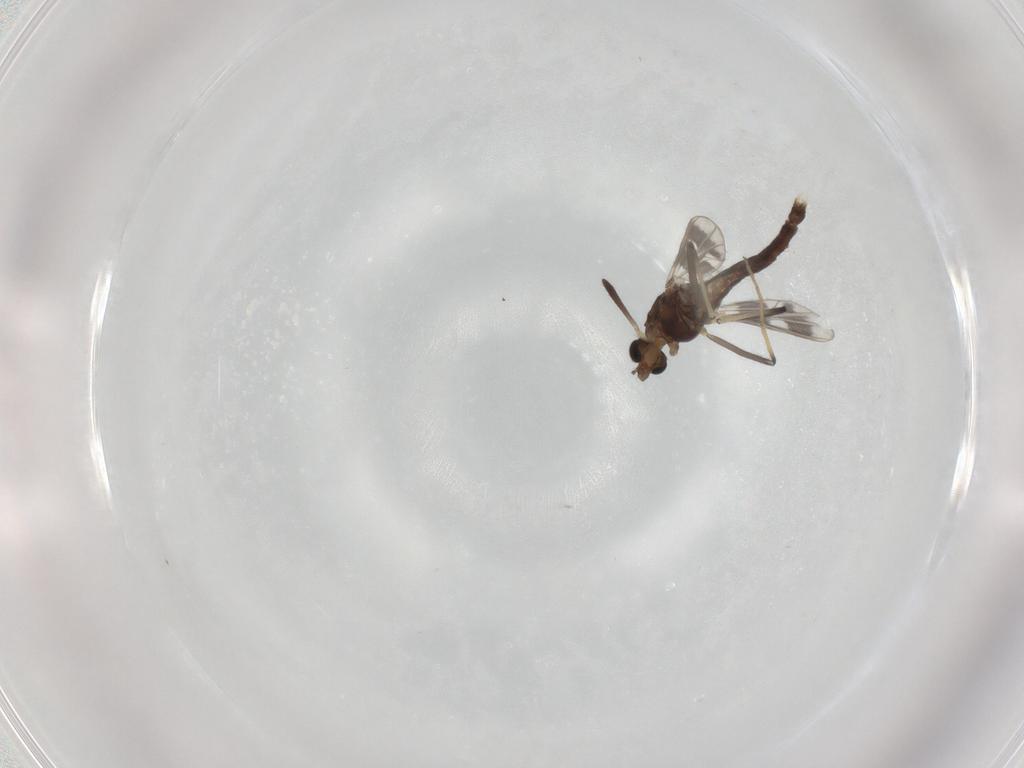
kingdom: Animalia
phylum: Arthropoda
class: Insecta
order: Diptera
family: Chironomidae
